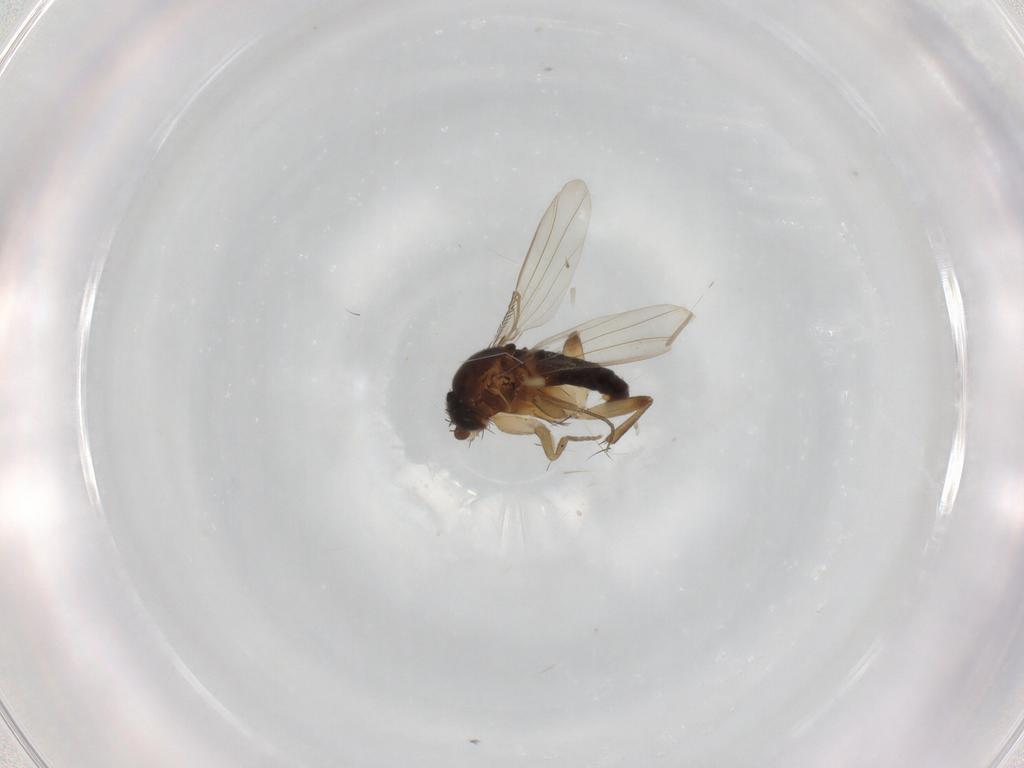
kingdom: Animalia
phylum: Arthropoda
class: Insecta
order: Diptera
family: Phoridae
